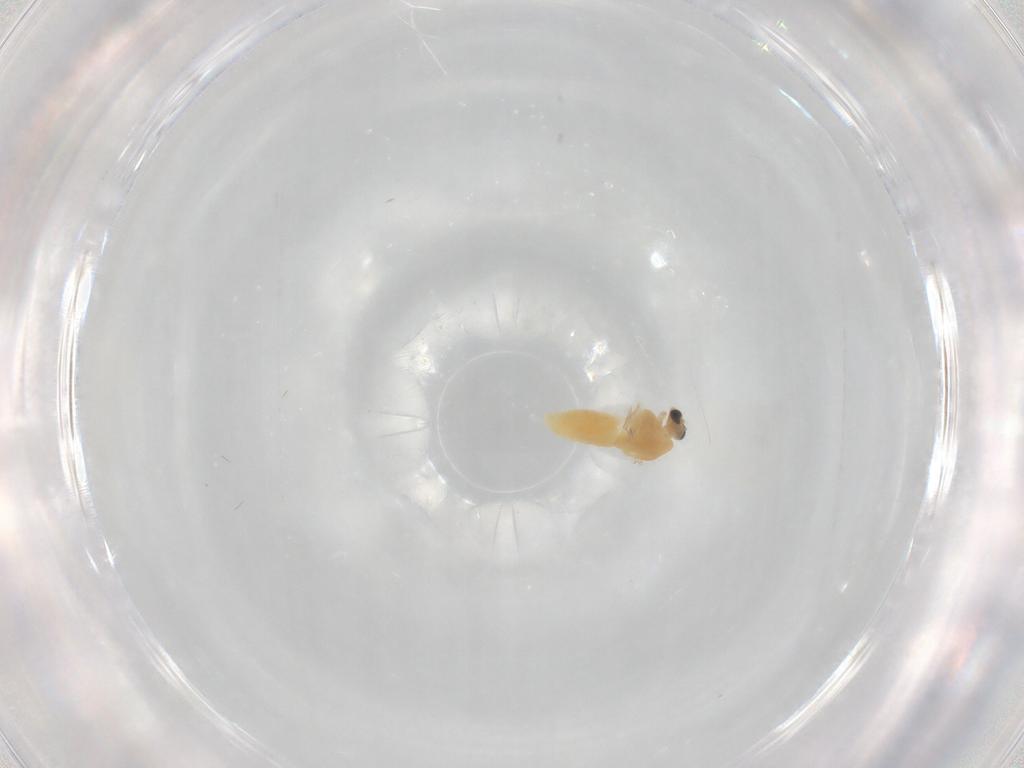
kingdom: Animalia
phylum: Arthropoda
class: Insecta
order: Diptera
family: Chironomidae
